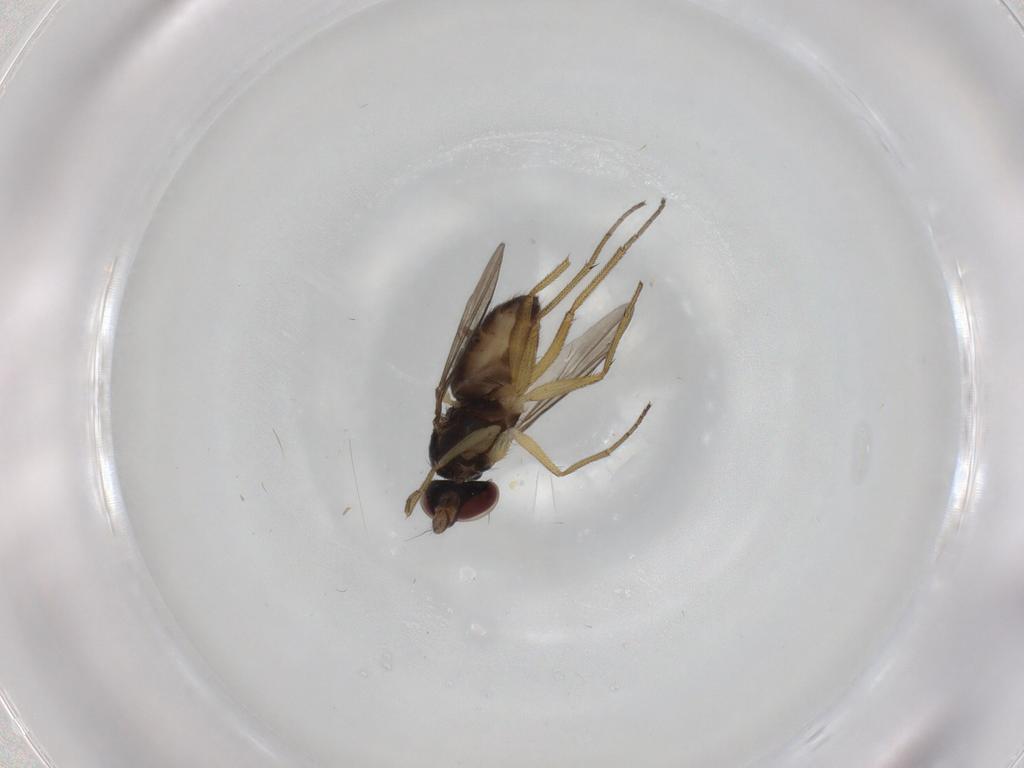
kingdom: Animalia
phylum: Arthropoda
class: Insecta
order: Diptera
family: Dolichopodidae
